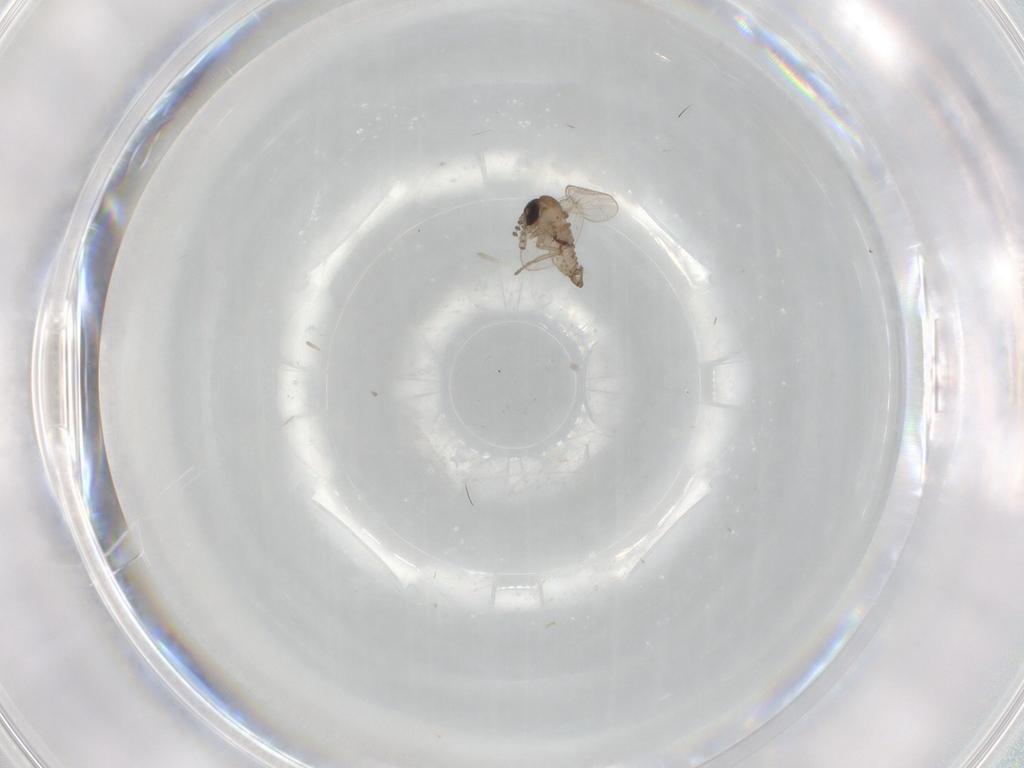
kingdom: Animalia
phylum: Arthropoda
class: Insecta
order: Diptera
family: Psychodidae
